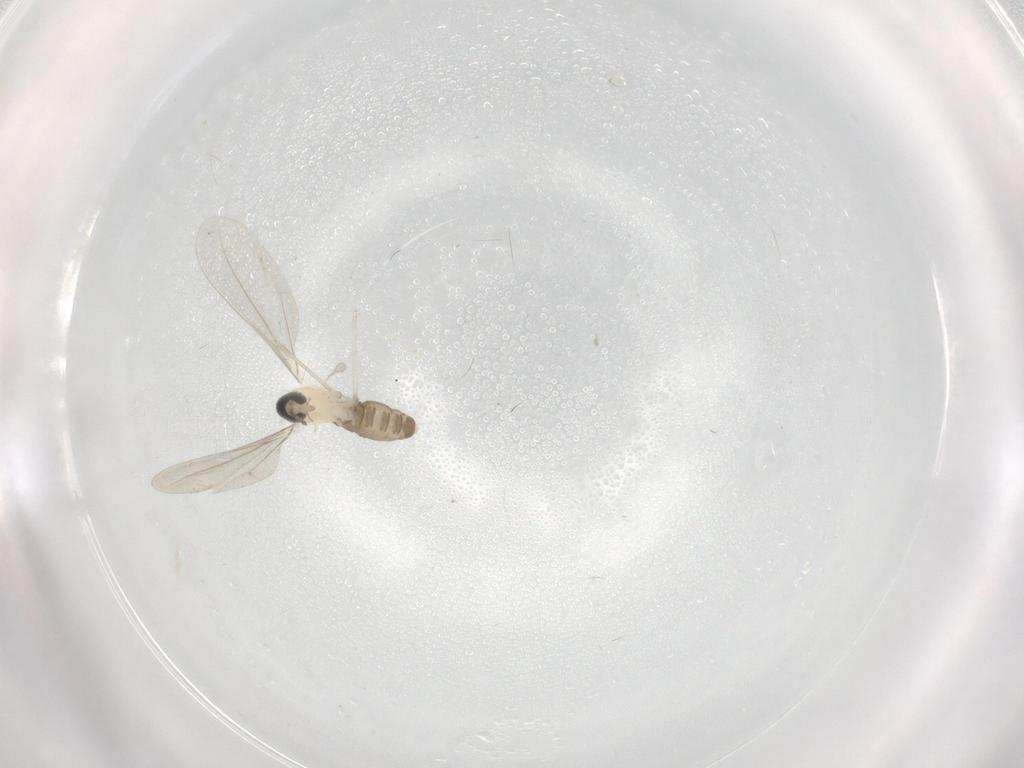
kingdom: Animalia
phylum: Arthropoda
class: Insecta
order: Diptera
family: Cecidomyiidae
